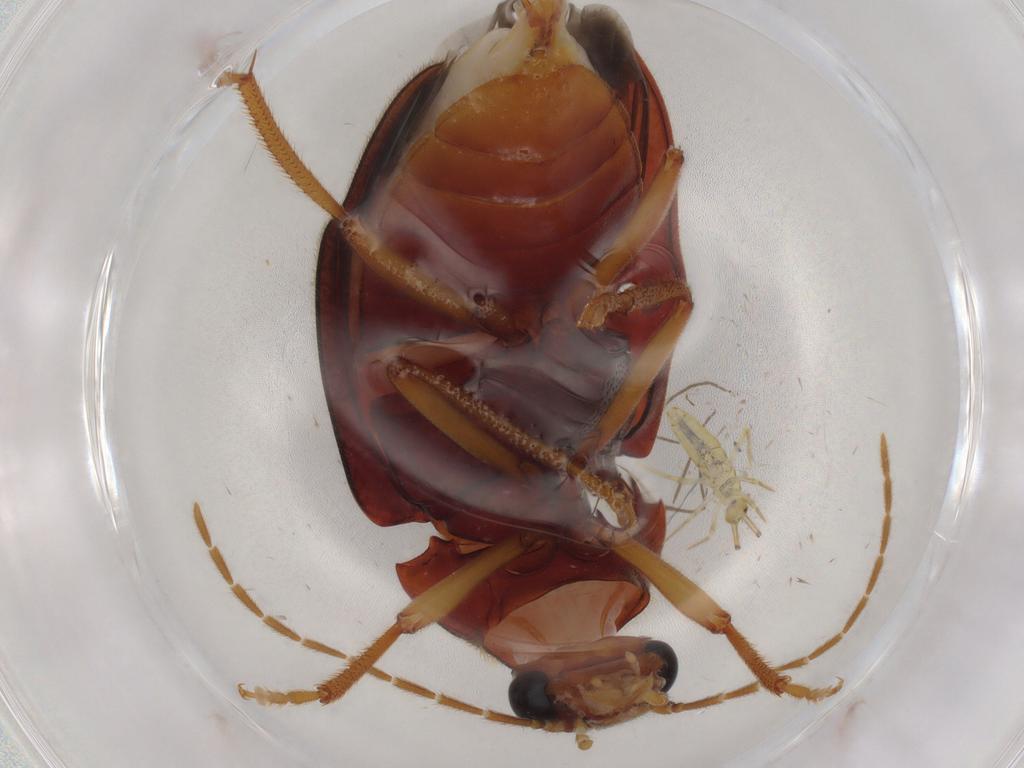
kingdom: Animalia
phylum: Arthropoda
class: Insecta
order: Coleoptera
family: Ptilodactylidae
